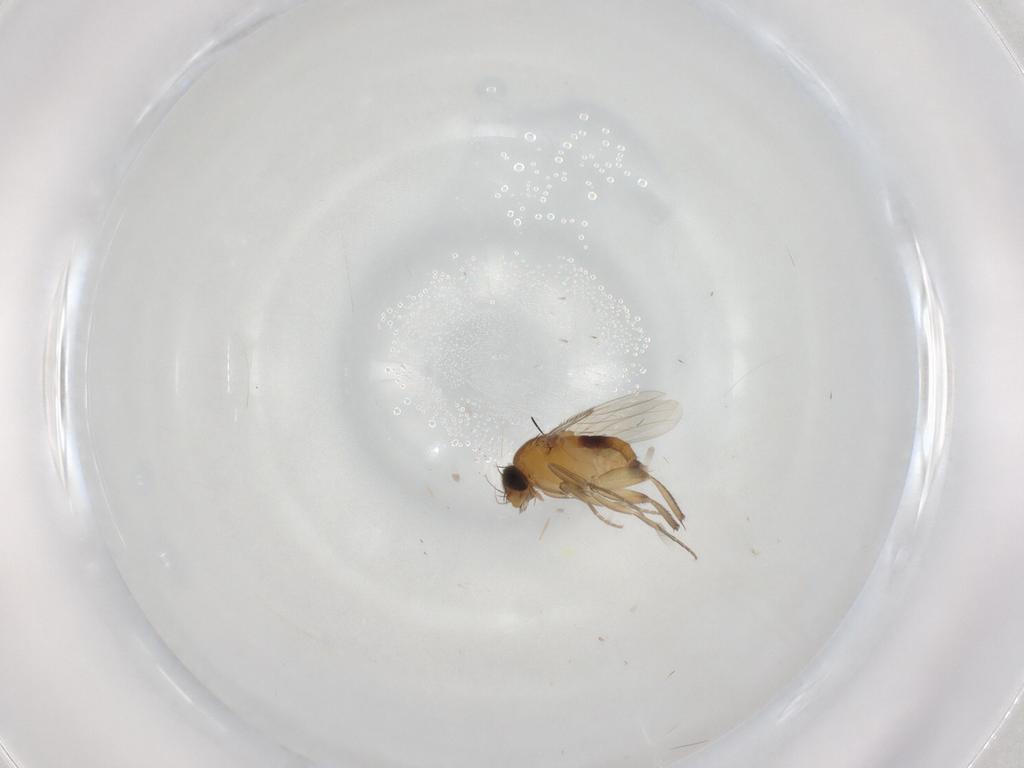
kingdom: Animalia
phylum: Arthropoda
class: Insecta
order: Diptera
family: Phoridae
